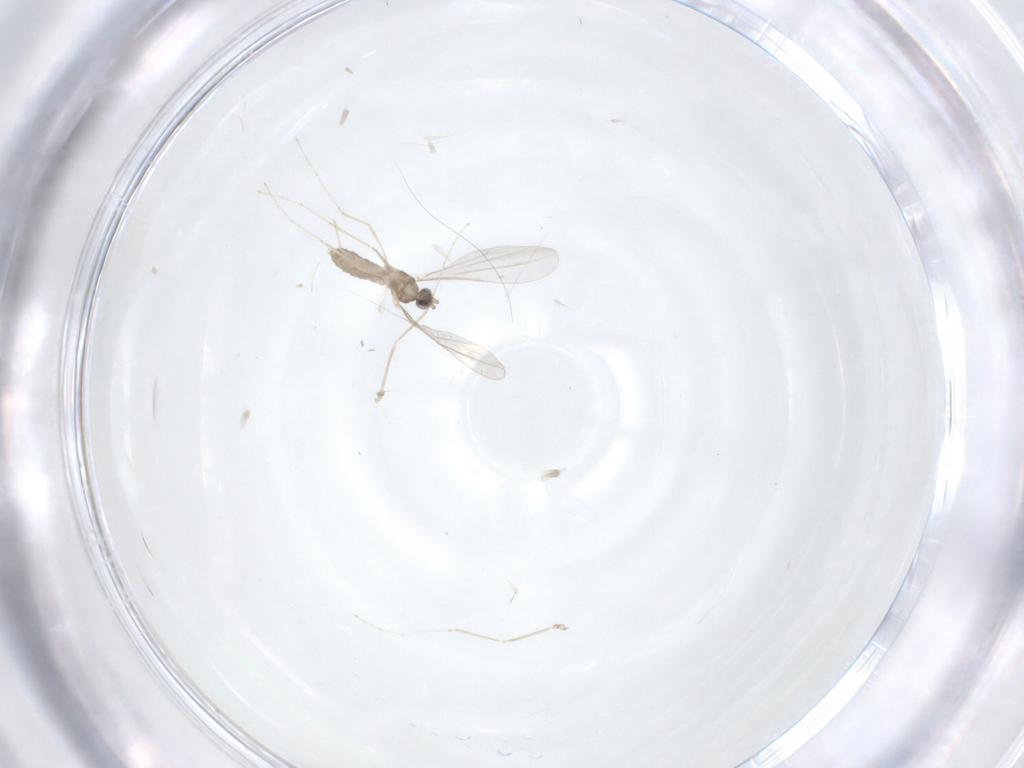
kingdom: Animalia
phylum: Arthropoda
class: Insecta
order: Diptera
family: Cecidomyiidae
